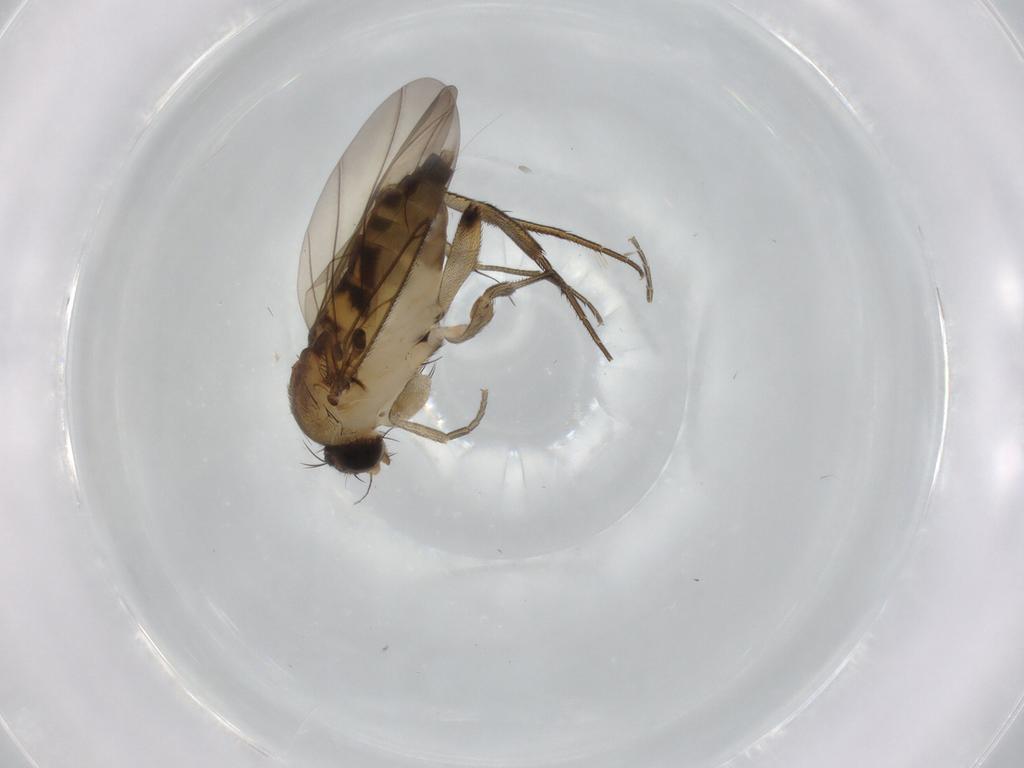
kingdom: Animalia
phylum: Arthropoda
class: Insecta
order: Diptera
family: Phoridae
